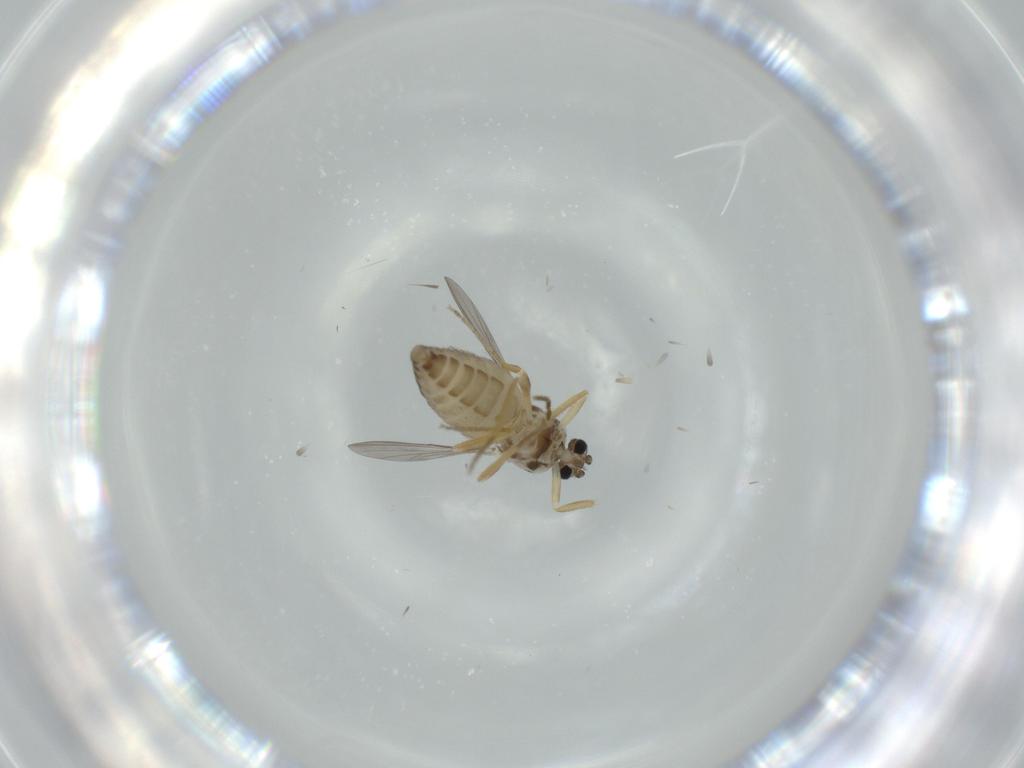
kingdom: Animalia
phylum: Arthropoda
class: Insecta
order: Diptera
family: Ceratopogonidae
